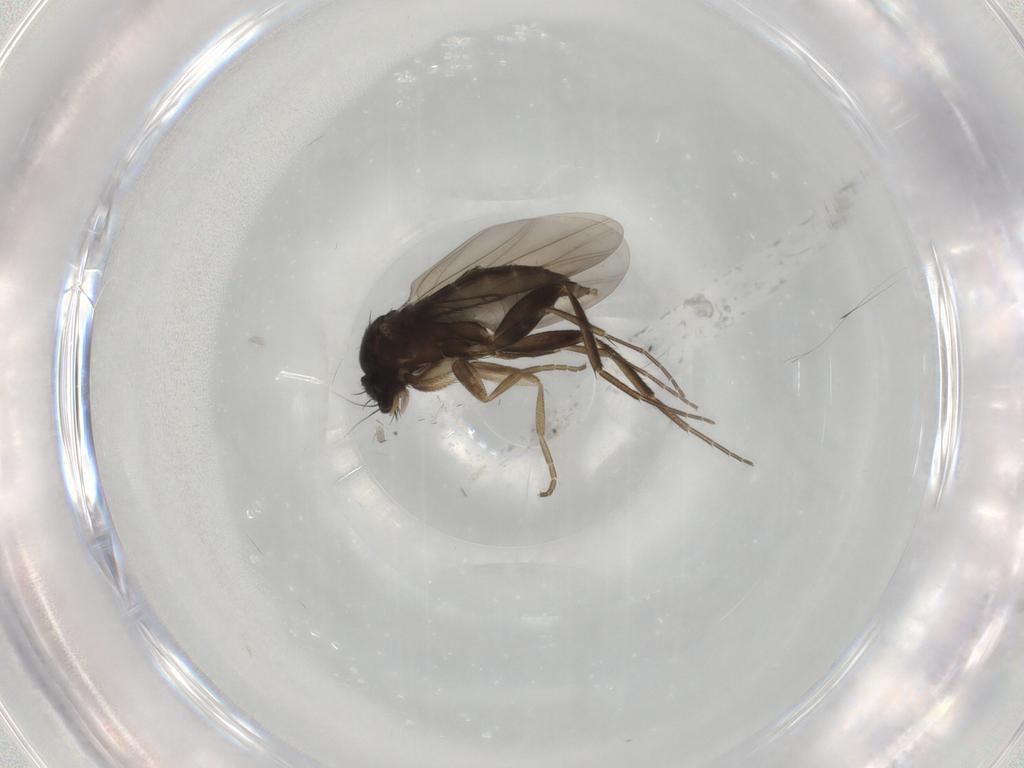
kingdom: Animalia
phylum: Arthropoda
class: Insecta
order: Diptera
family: Phoridae
